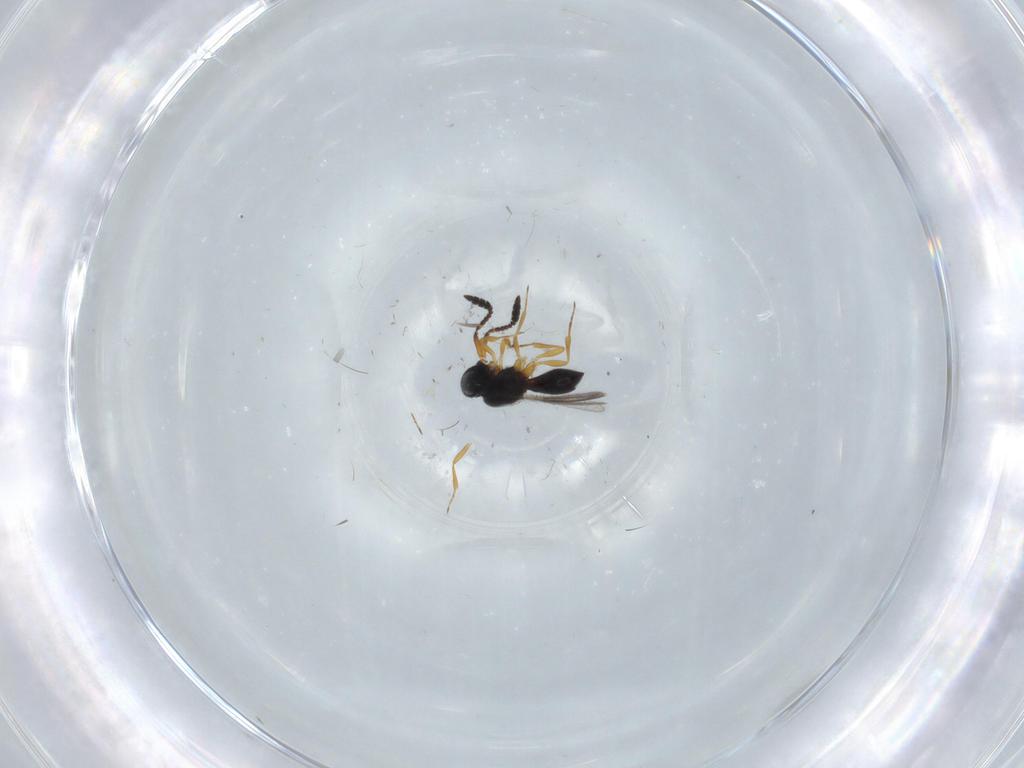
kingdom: Animalia
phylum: Arthropoda
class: Insecta
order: Hymenoptera
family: Scelionidae
